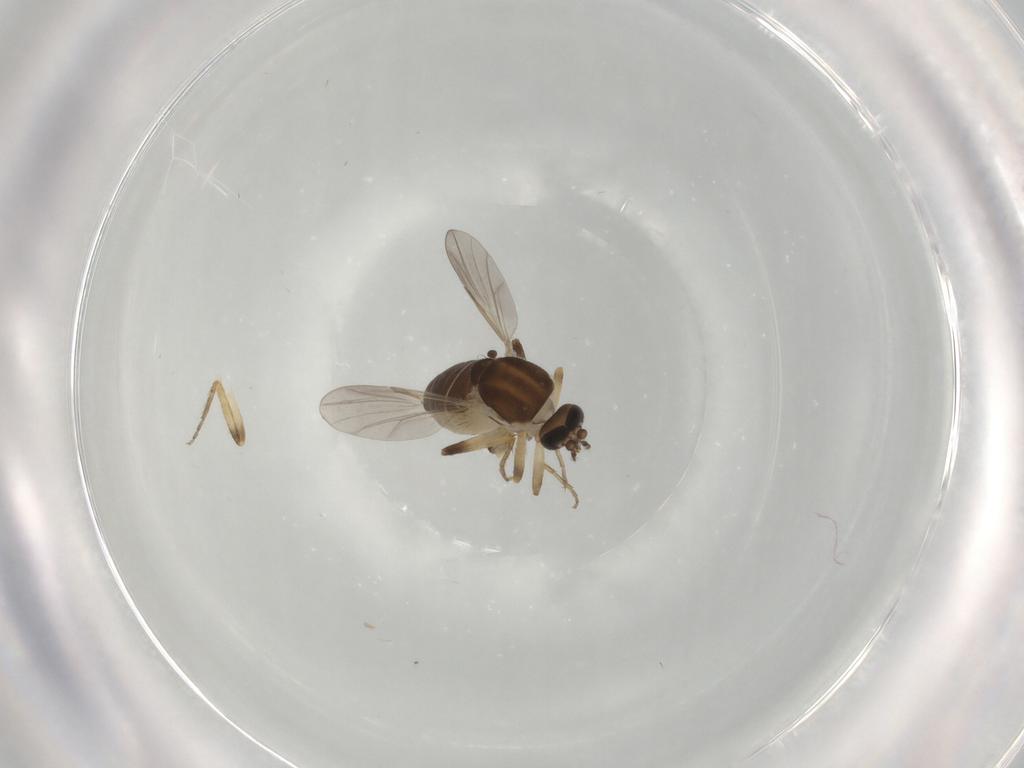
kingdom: Animalia
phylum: Arthropoda
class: Insecta
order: Diptera
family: Ceratopogonidae
